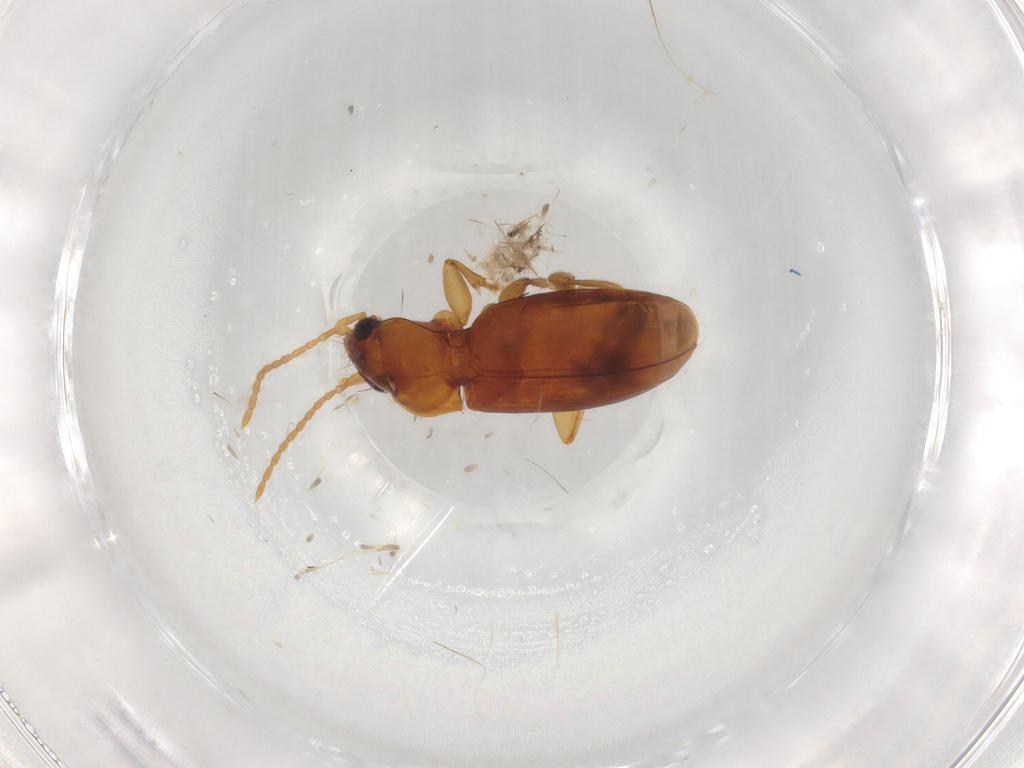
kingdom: Animalia
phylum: Arthropoda
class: Insecta
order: Coleoptera
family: Carabidae
